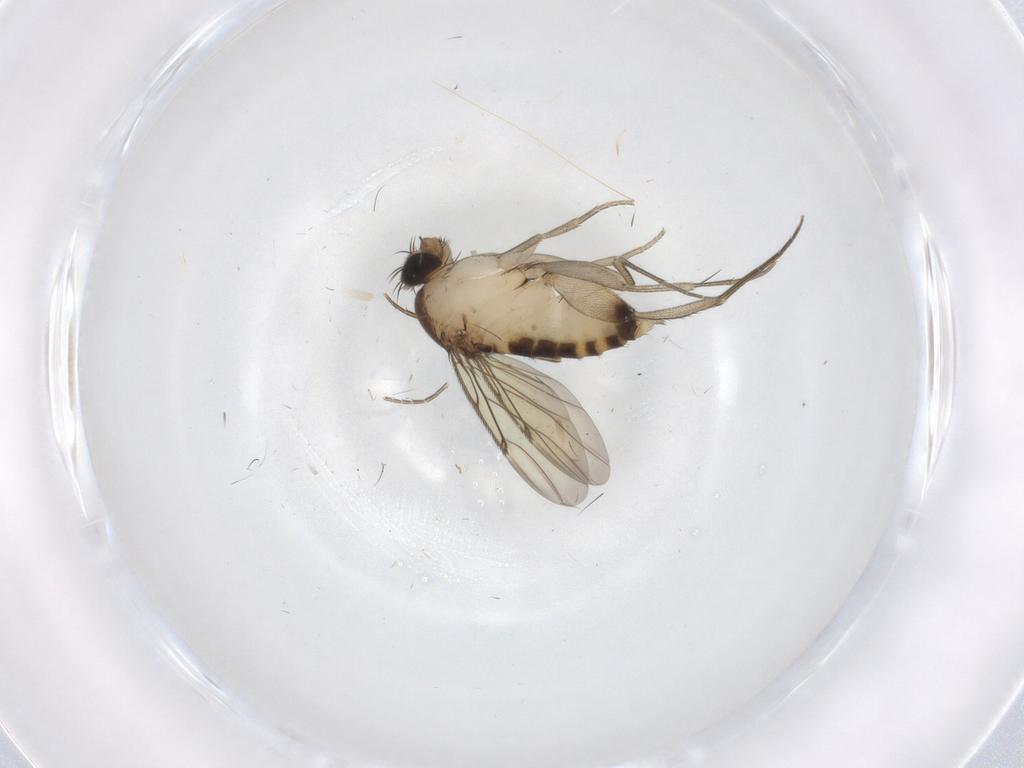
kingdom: Animalia
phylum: Arthropoda
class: Insecta
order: Diptera
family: Phoridae
